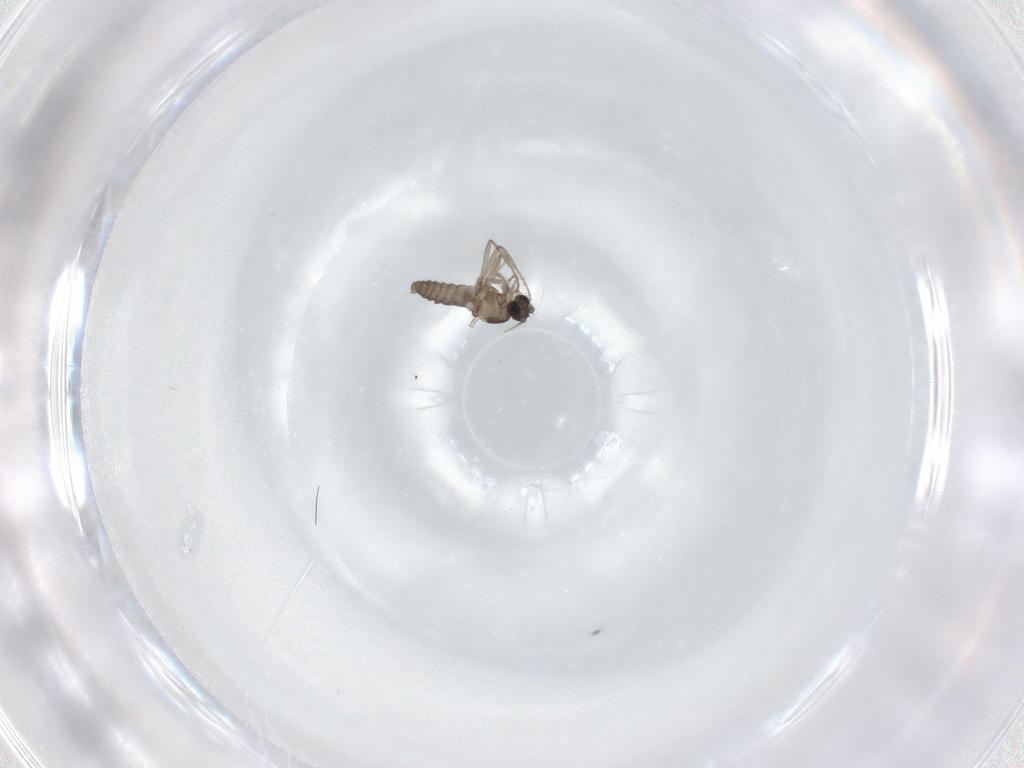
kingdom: Animalia
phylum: Arthropoda
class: Insecta
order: Diptera
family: Cecidomyiidae
